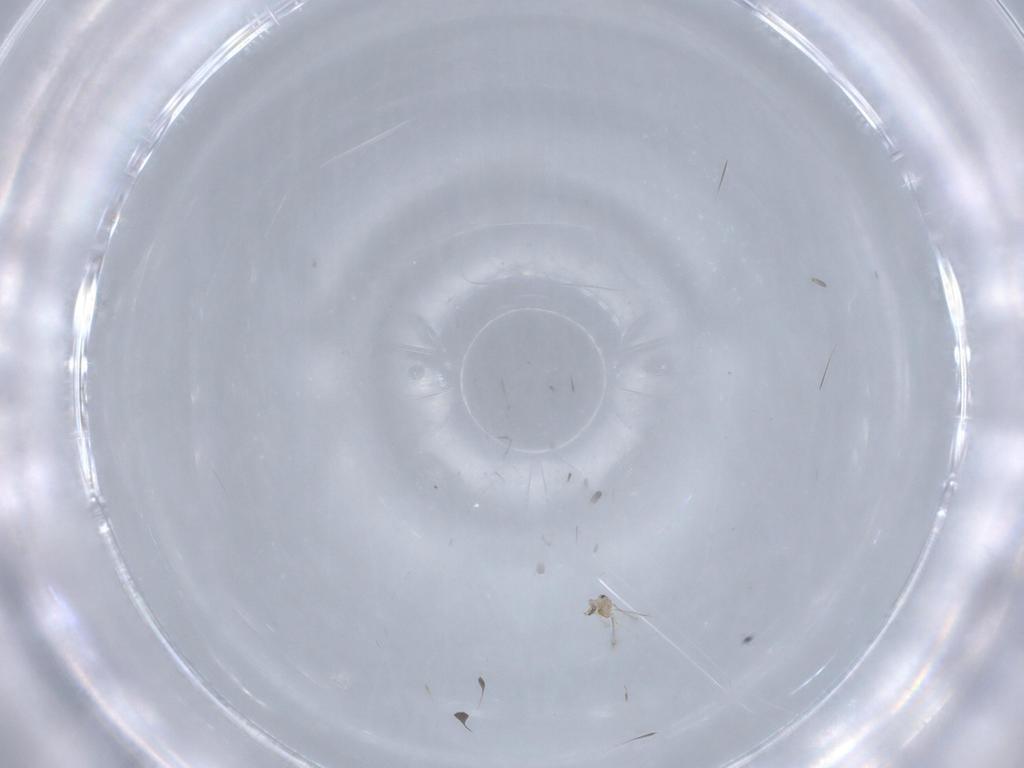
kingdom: Animalia
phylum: Arthropoda
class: Insecta
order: Hymenoptera
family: Mymaridae
